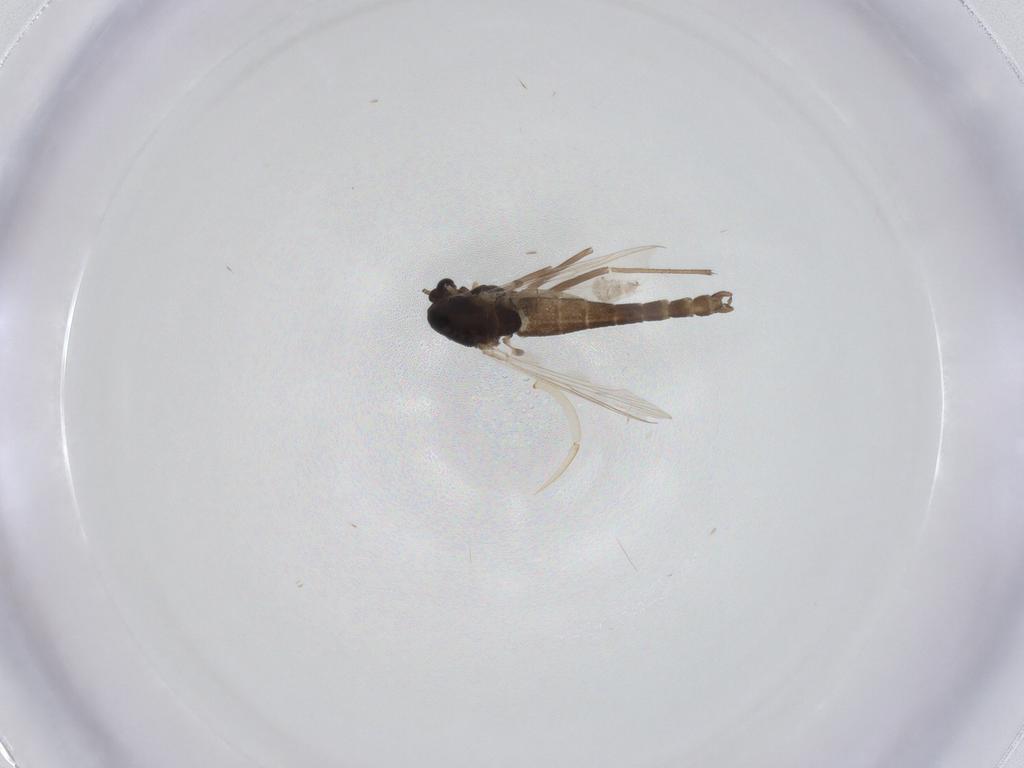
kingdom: Animalia
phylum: Arthropoda
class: Insecta
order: Diptera
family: Chironomidae
